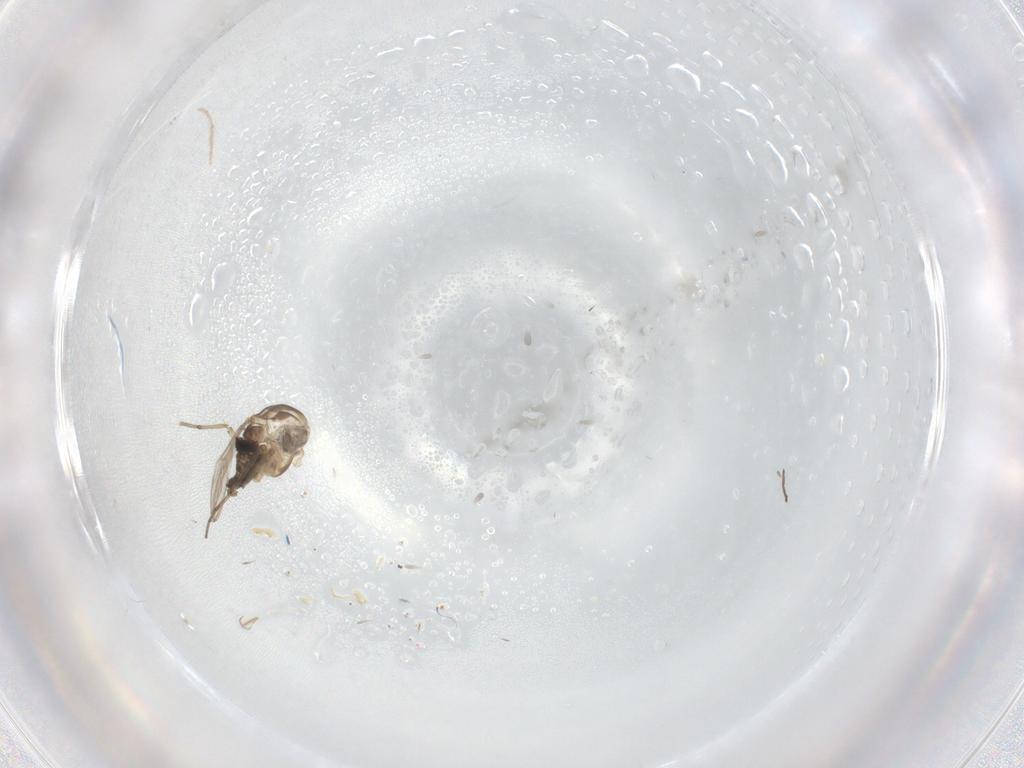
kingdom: Animalia
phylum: Arthropoda
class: Insecta
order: Diptera
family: Chironomidae
